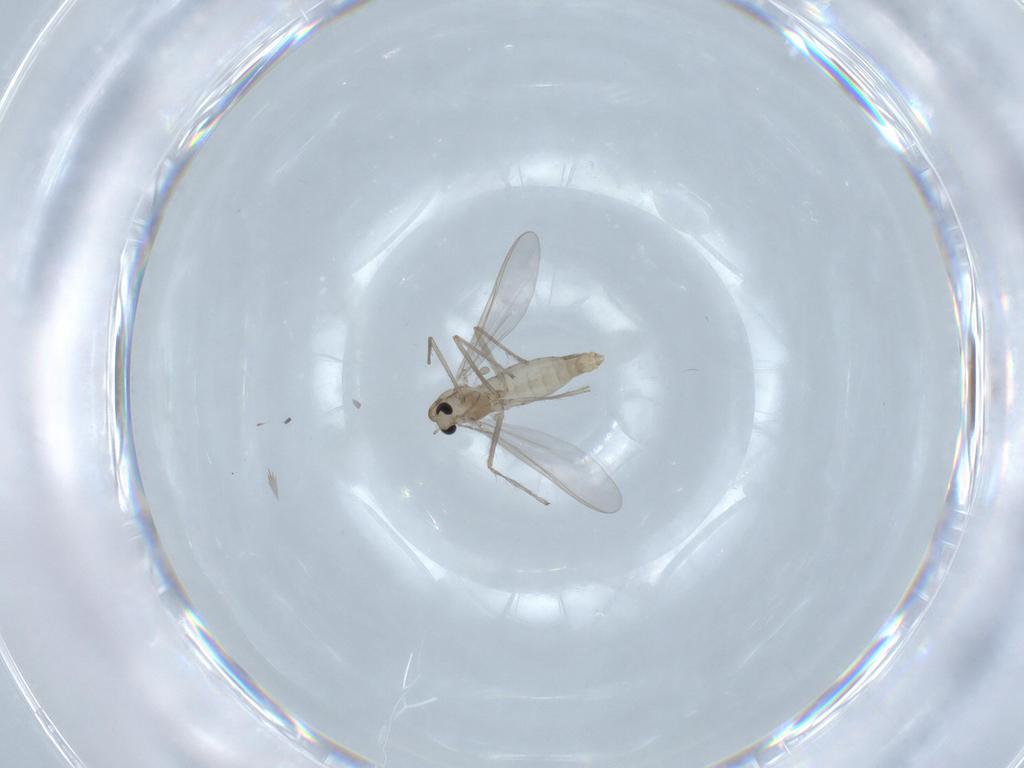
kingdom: Animalia
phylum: Arthropoda
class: Insecta
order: Diptera
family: Chironomidae
